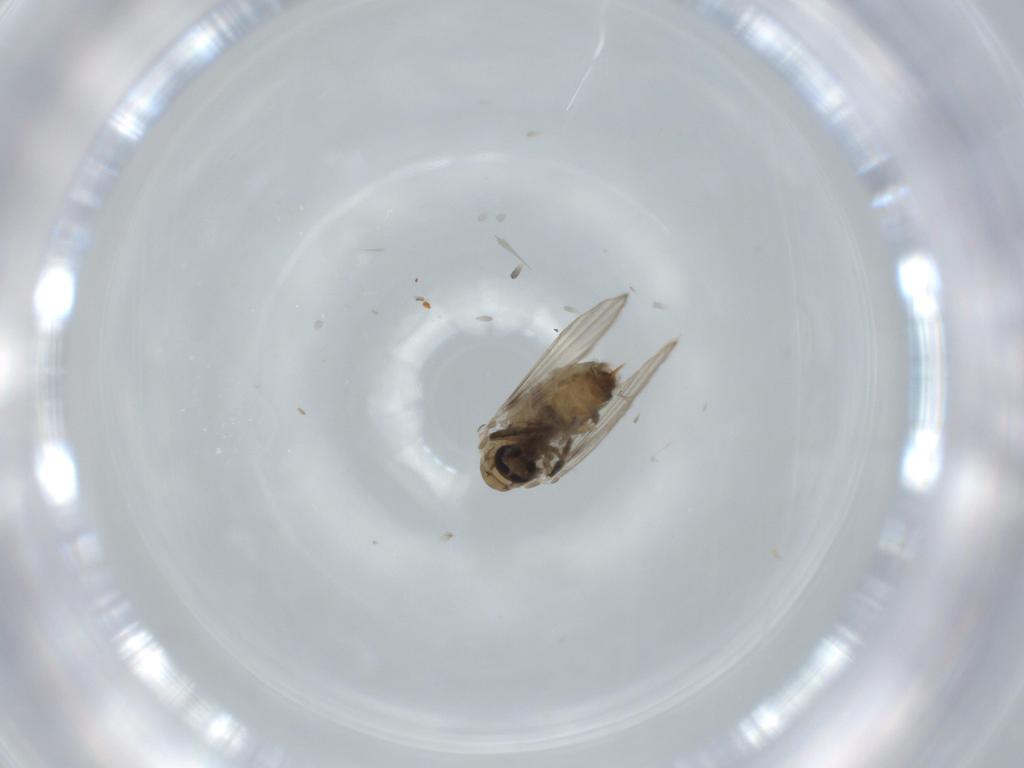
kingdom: Animalia
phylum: Arthropoda
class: Insecta
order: Diptera
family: Psychodidae
